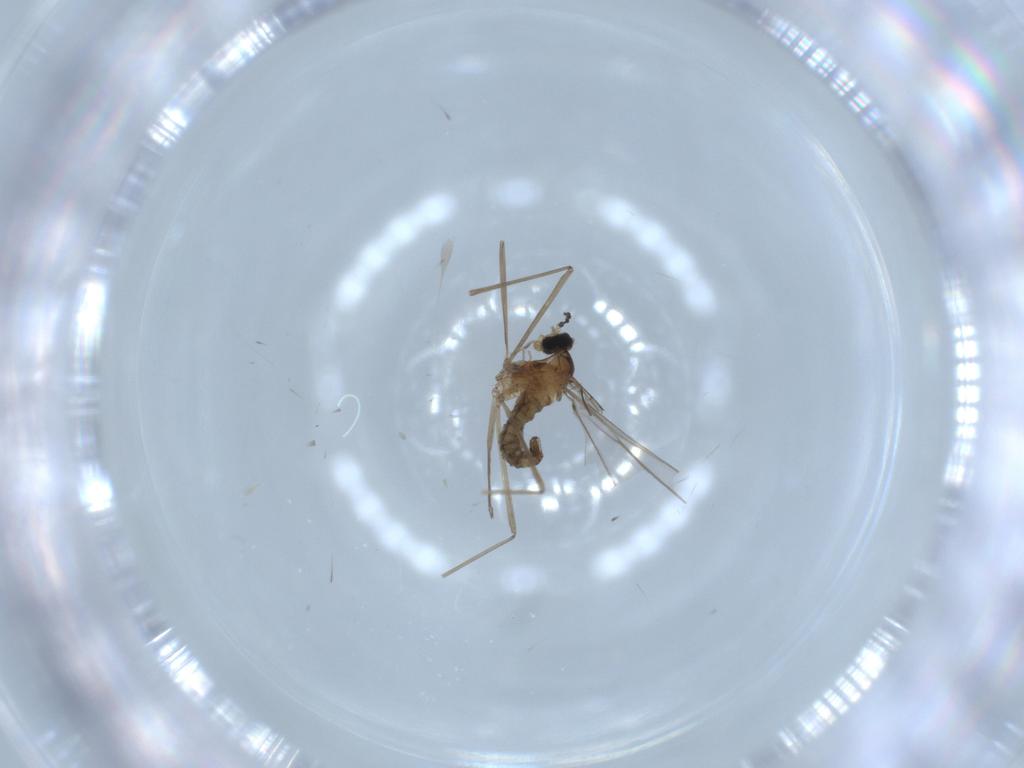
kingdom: Animalia
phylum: Arthropoda
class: Insecta
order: Diptera
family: Cecidomyiidae
